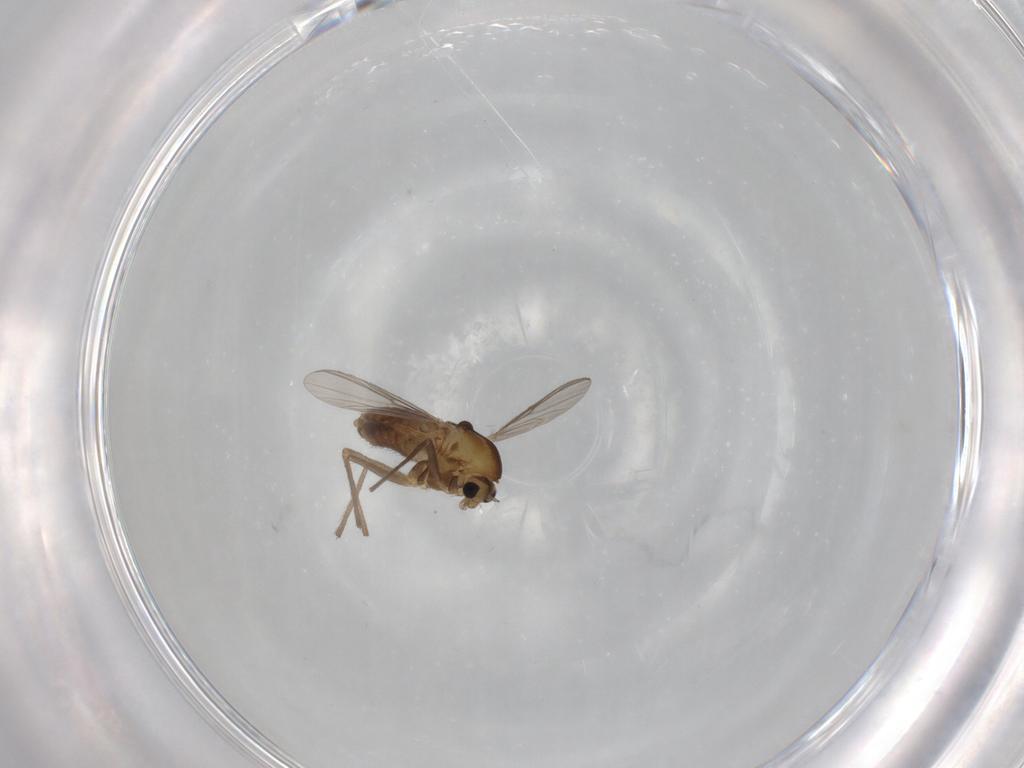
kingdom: Animalia
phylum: Arthropoda
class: Insecta
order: Diptera
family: Chironomidae
